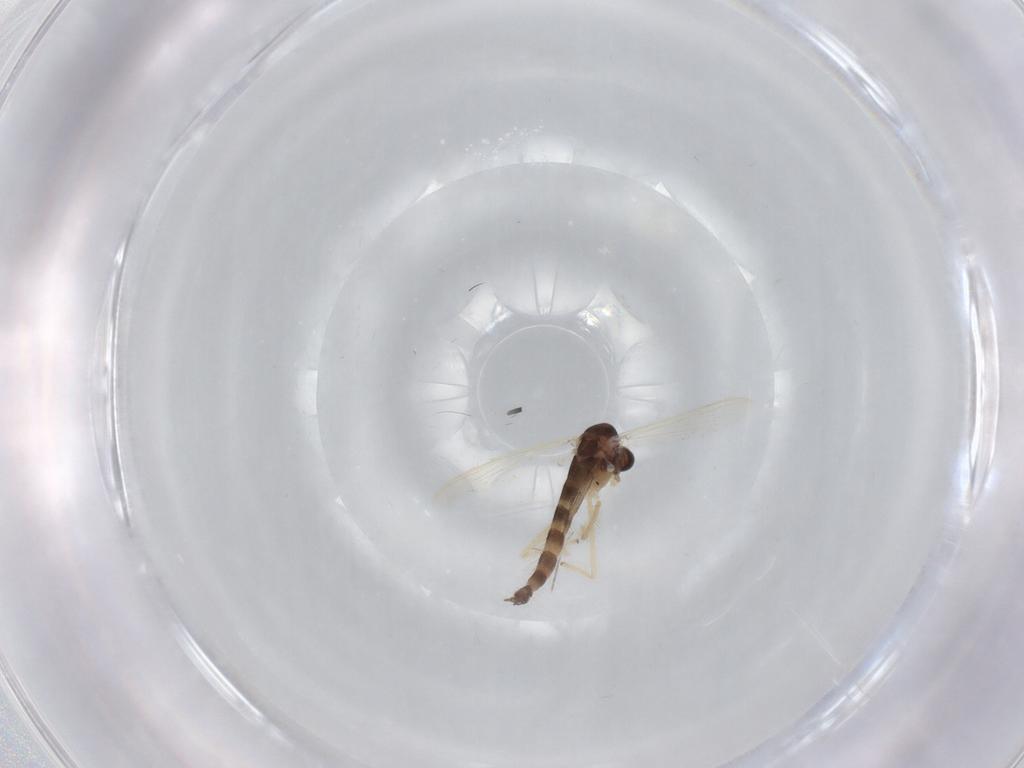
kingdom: Animalia
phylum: Arthropoda
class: Insecta
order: Diptera
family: Chironomidae
